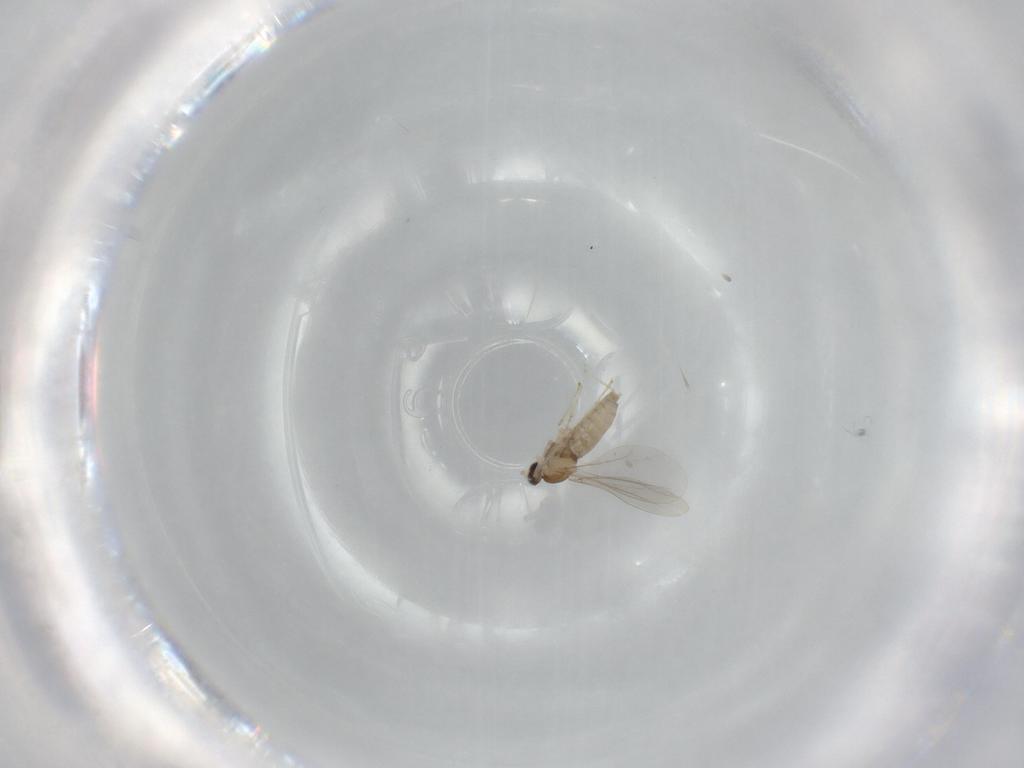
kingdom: Animalia
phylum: Arthropoda
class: Insecta
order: Diptera
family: Cecidomyiidae
